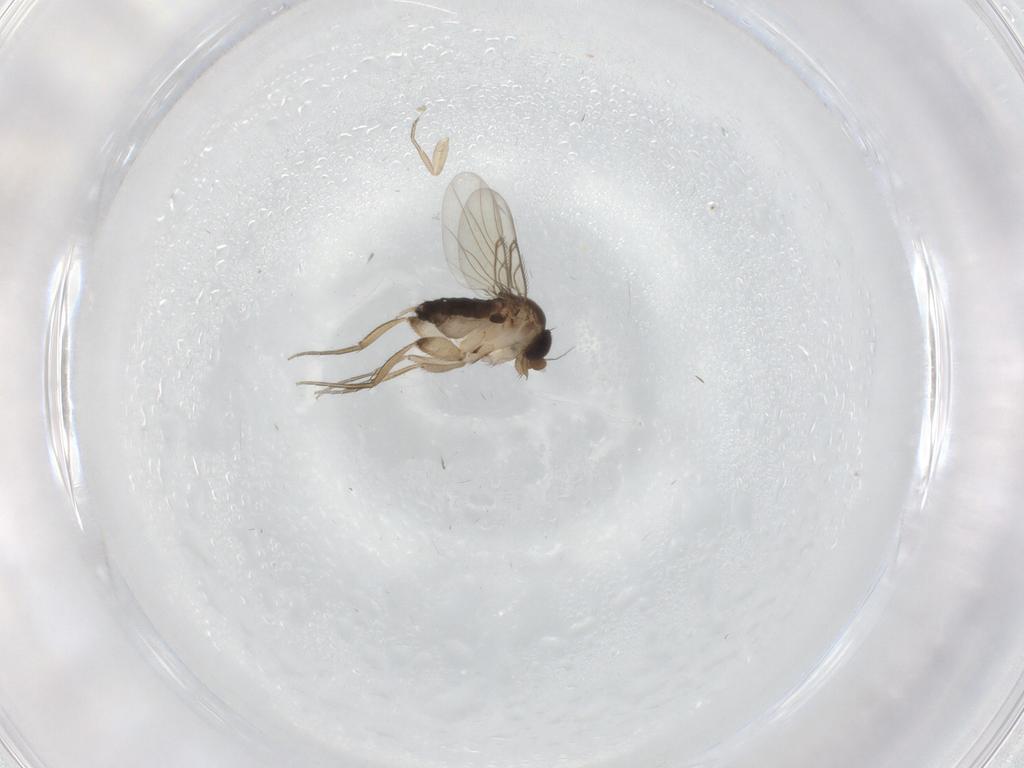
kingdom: Animalia
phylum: Arthropoda
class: Insecta
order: Diptera
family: Phoridae
